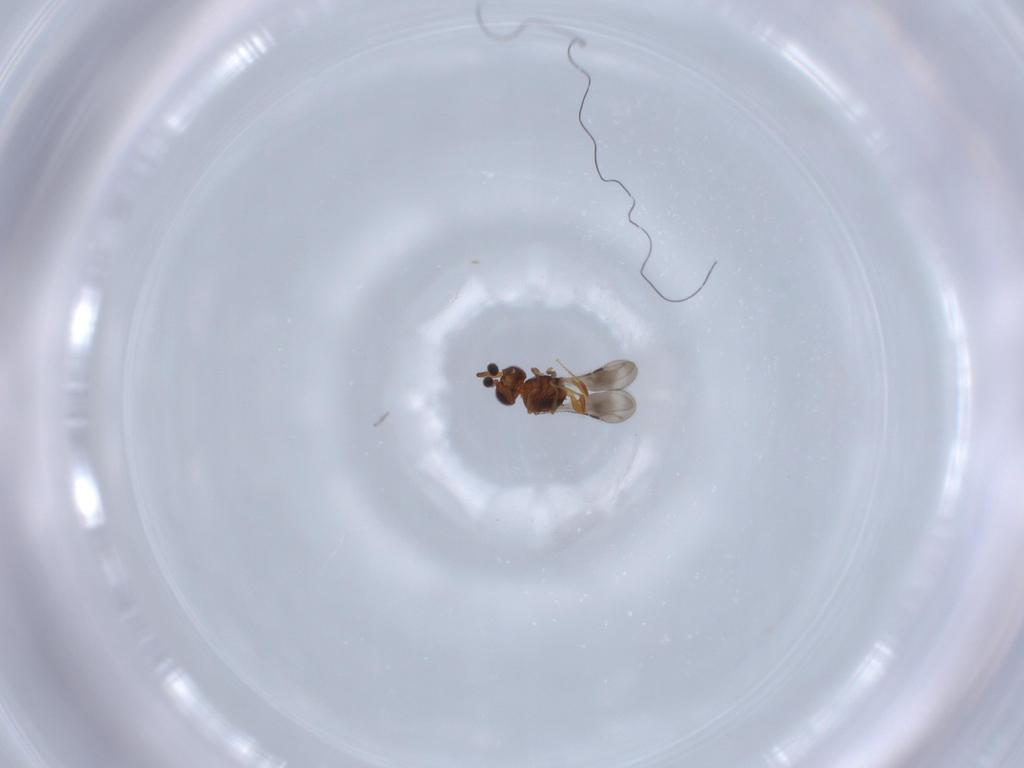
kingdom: Animalia
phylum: Arthropoda
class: Insecta
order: Hymenoptera
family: Ceraphronidae
